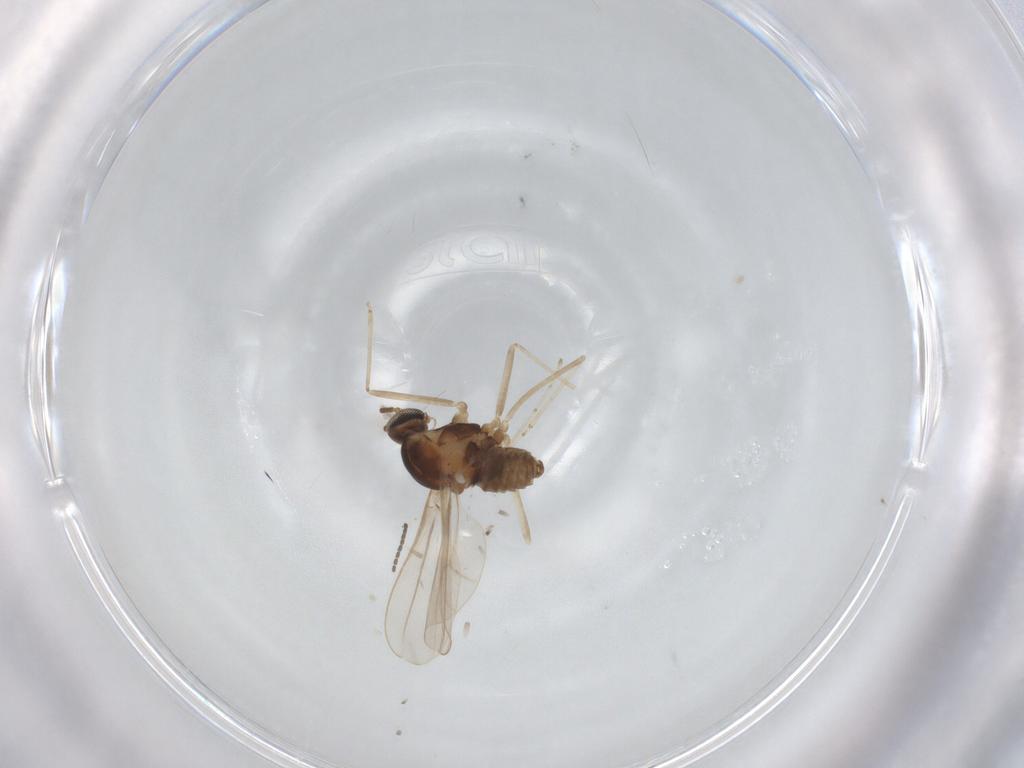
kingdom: Animalia
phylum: Arthropoda
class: Insecta
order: Diptera
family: Cecidomyiidae
